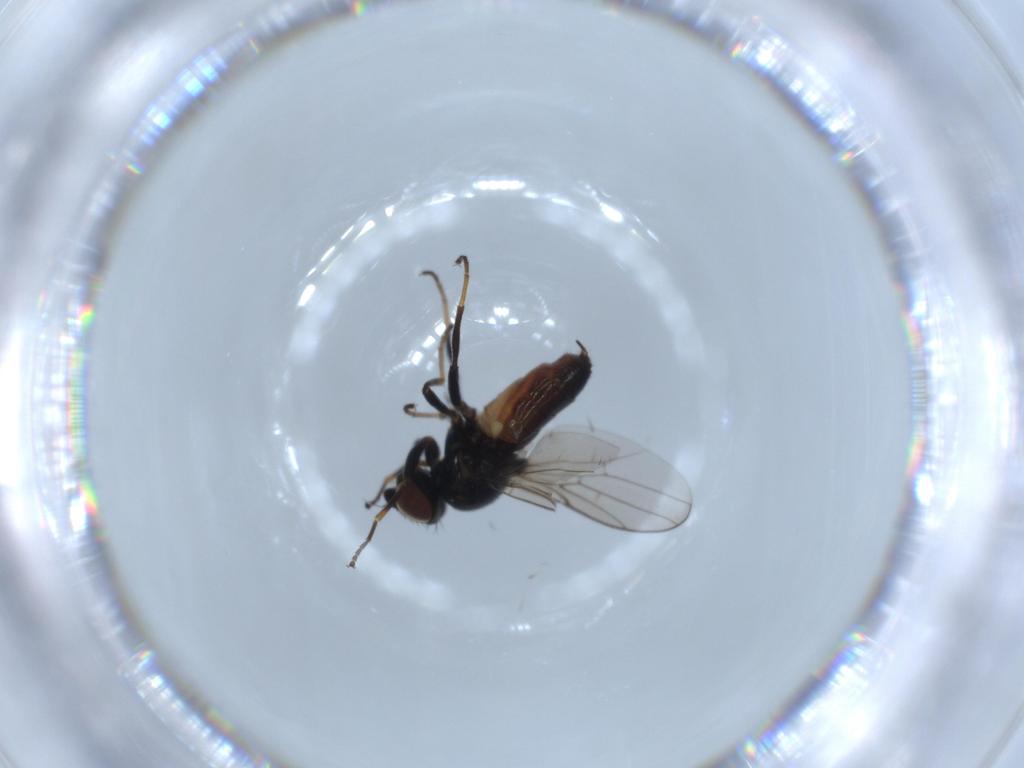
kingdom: Animalia
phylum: Arthropoda
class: Insecta
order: Diptera
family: Chloropidae
